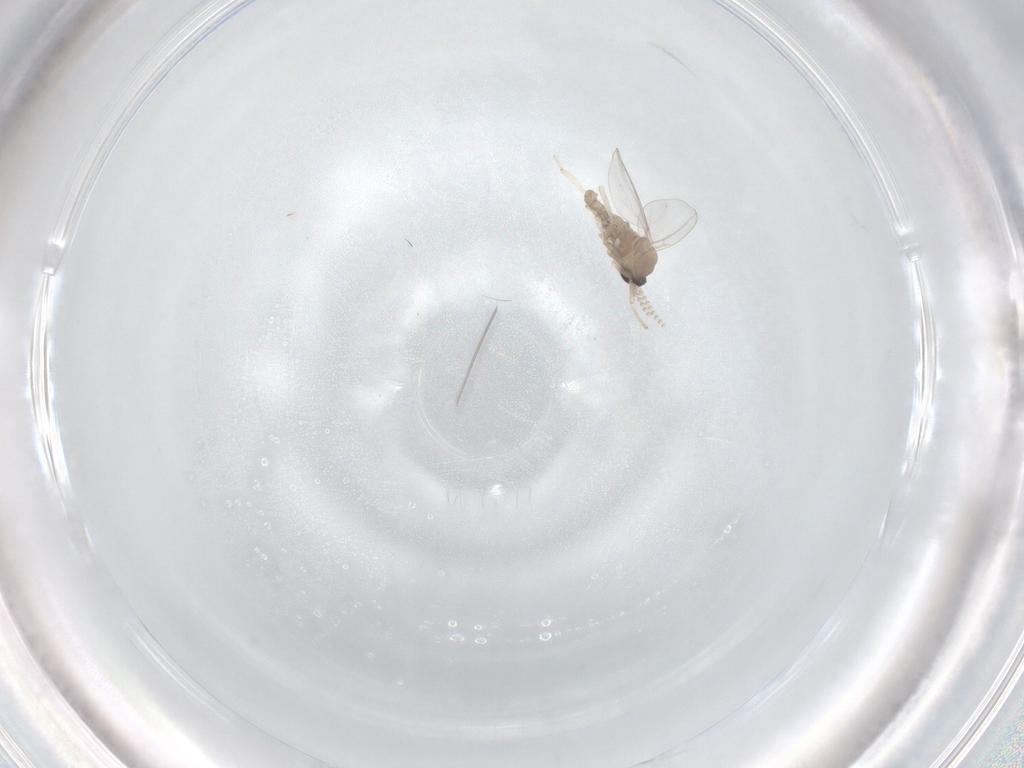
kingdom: Animalia
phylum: Arthropoda
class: Insecta
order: Diptera
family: Cecidomyiidae
